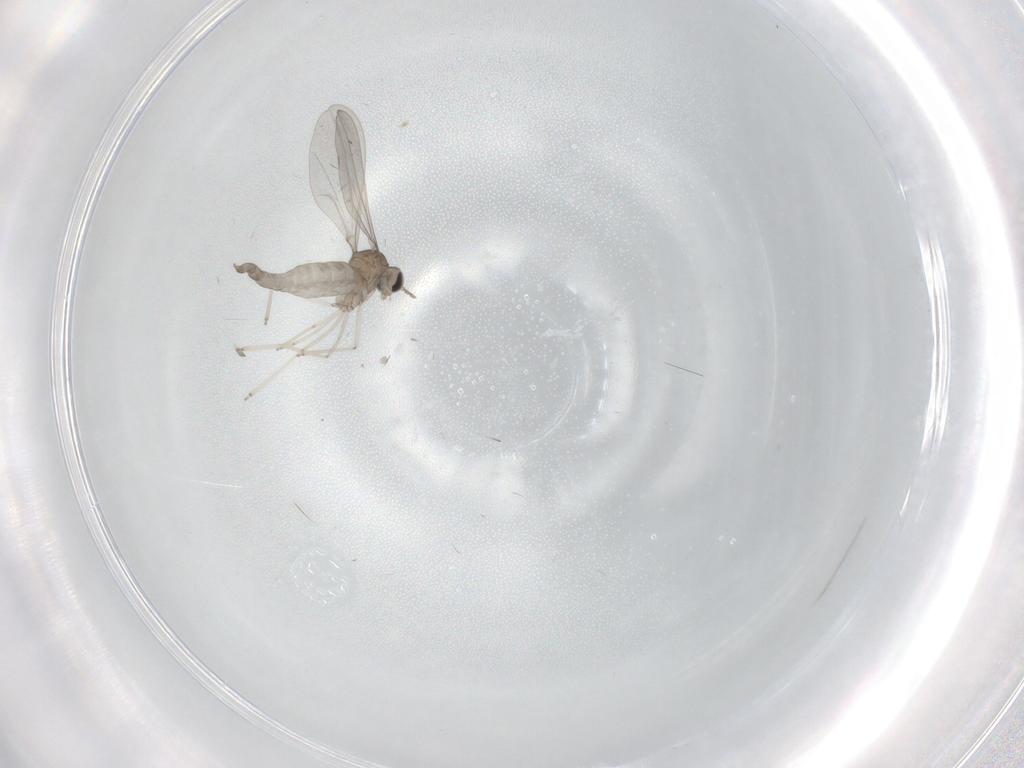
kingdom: Animalia
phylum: Arthropoda
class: Insecta
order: Diptera
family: Cecidomyiidae
